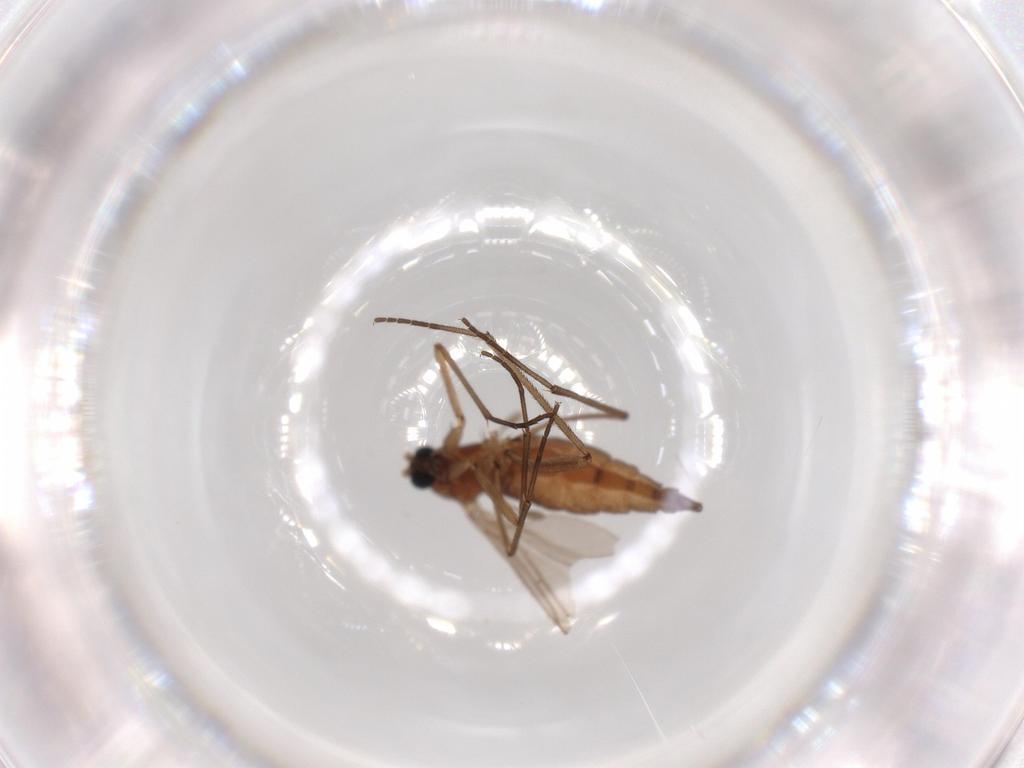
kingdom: Animalia
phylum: Arthropoda
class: Insecta
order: Diptera
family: Sciaridae
